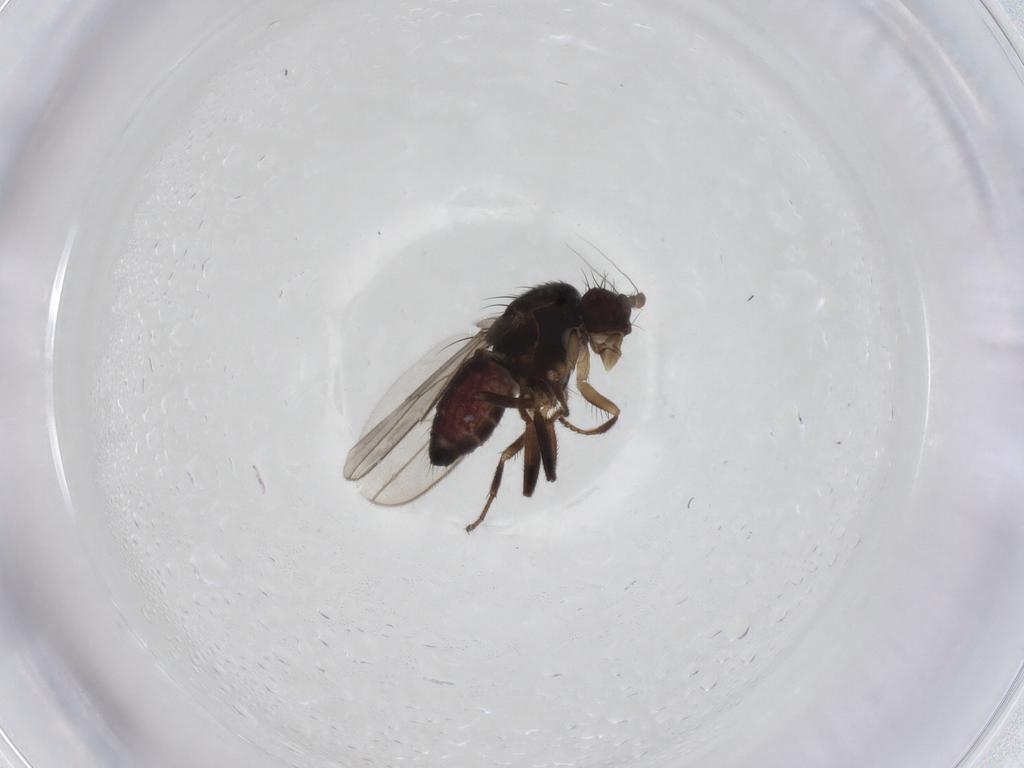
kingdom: Animalia
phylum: Arthropoda
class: Insecta
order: Diptera
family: Sphaeroceridae
